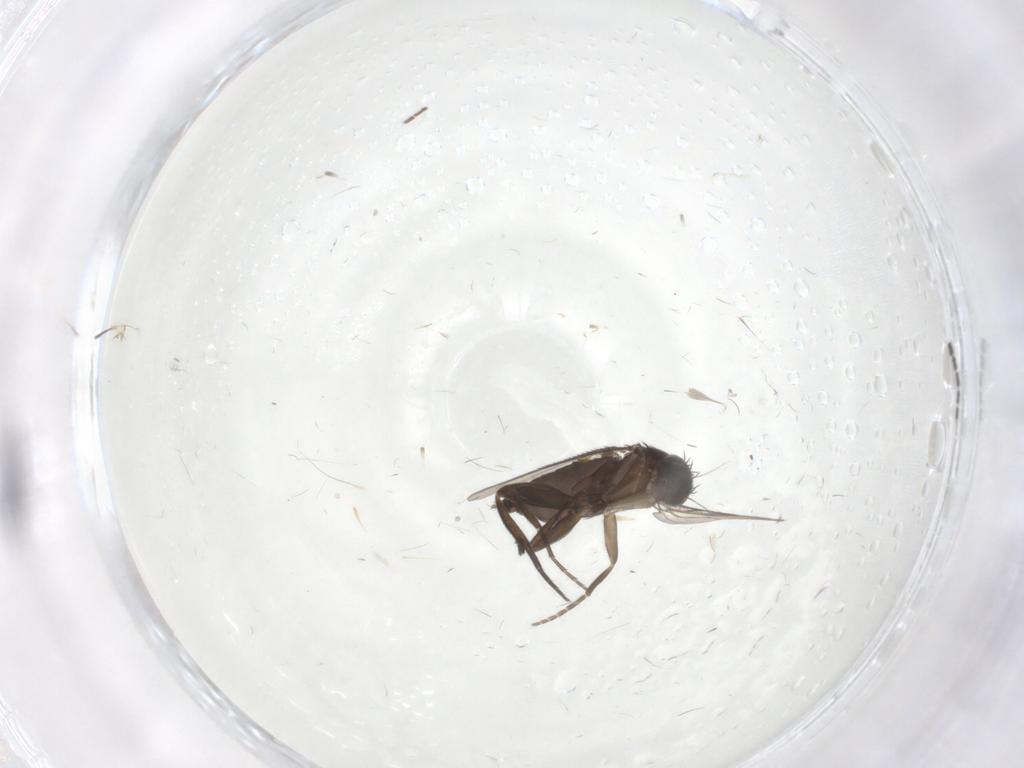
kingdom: Animalia
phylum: Arthropoda
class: Insecta
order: Diptera
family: Phoridae
